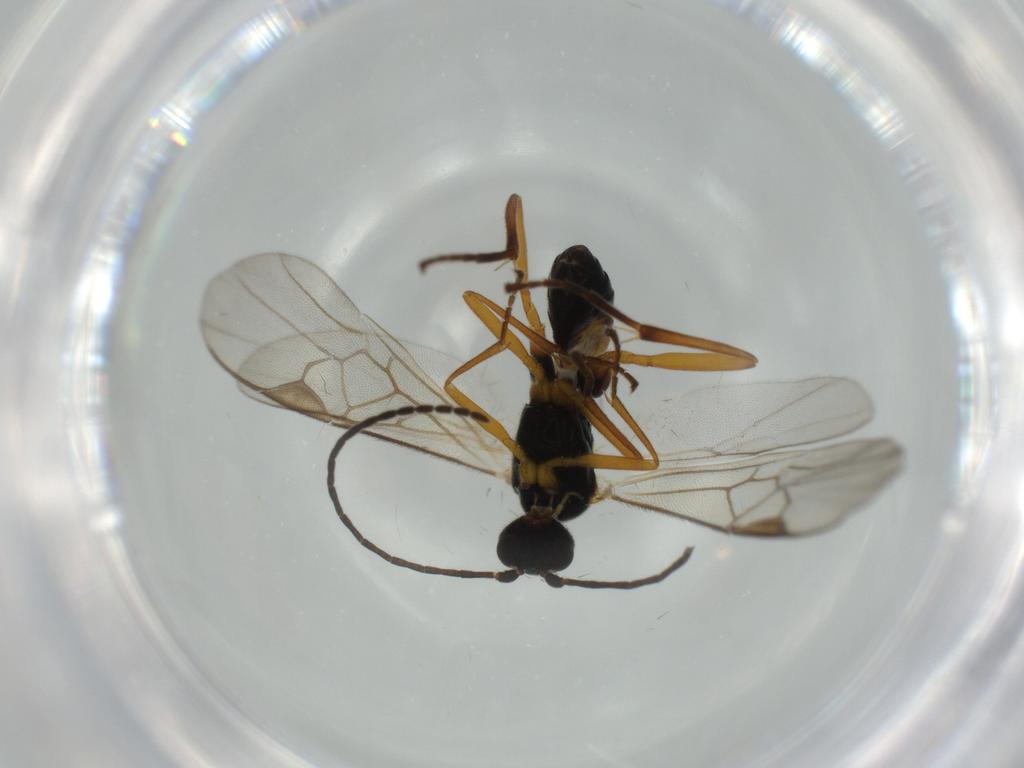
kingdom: Animalia
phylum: Arthropoda
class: Insecta
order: Hymenoptera
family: Braconidae
